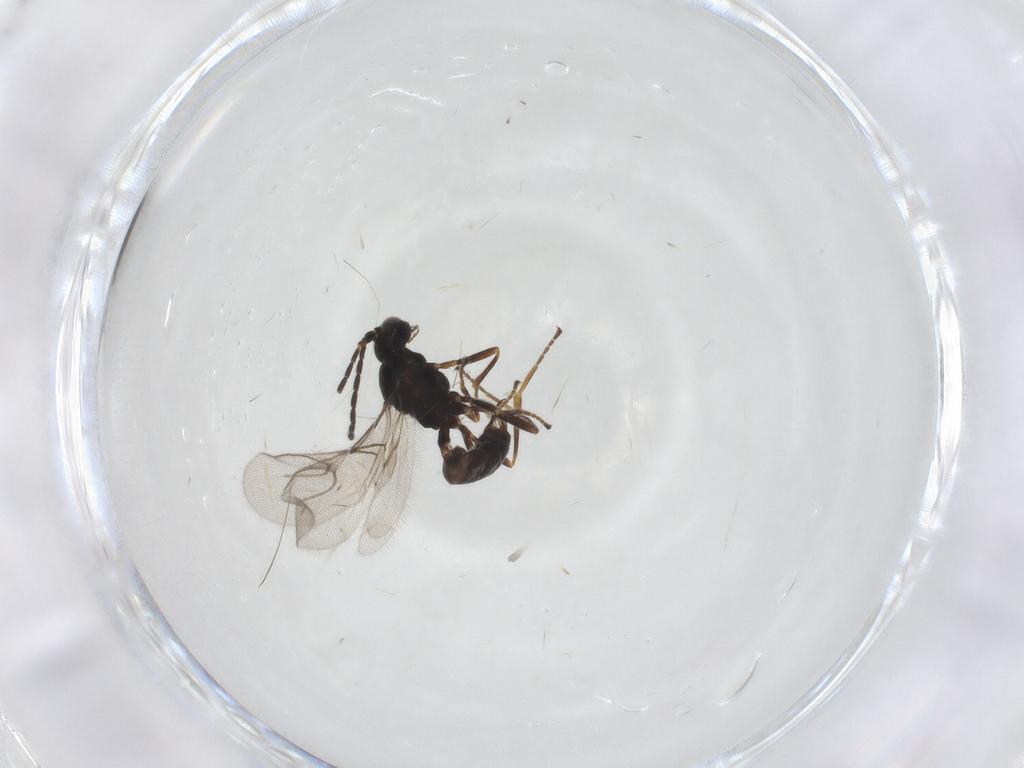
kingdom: Animalia
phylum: Arthropoda
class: Insecta
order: Hymenoptera
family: Braconidae
